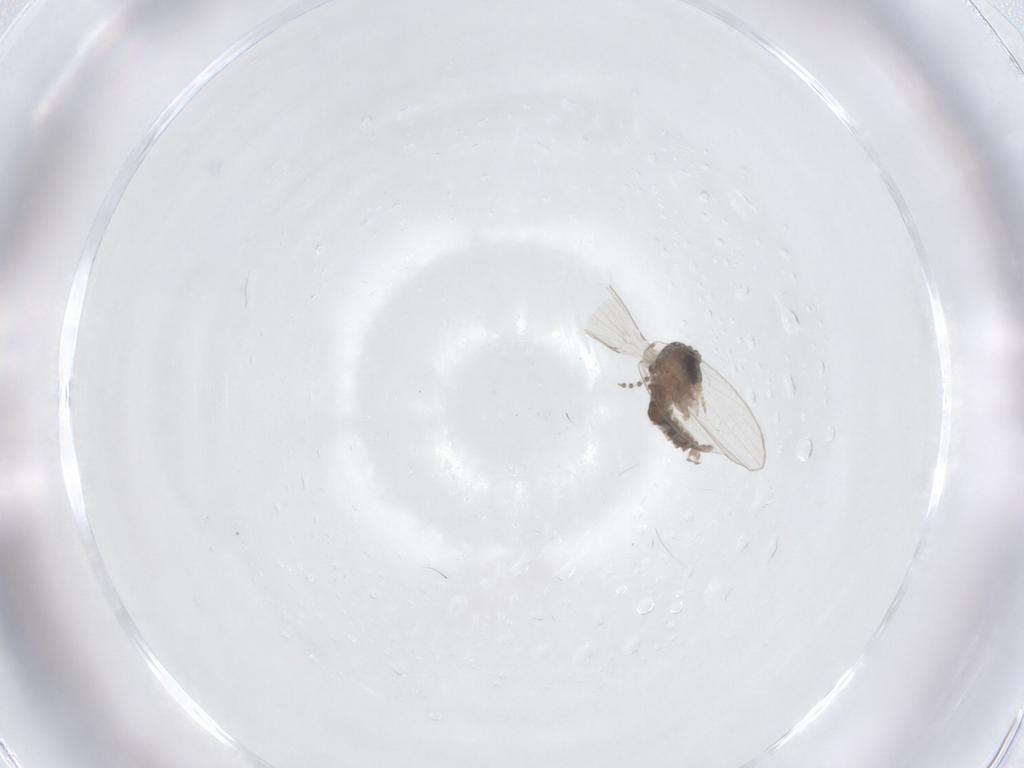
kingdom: Animalia
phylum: Arthropoda
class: Insecta
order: Diptera
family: Psychodidae
